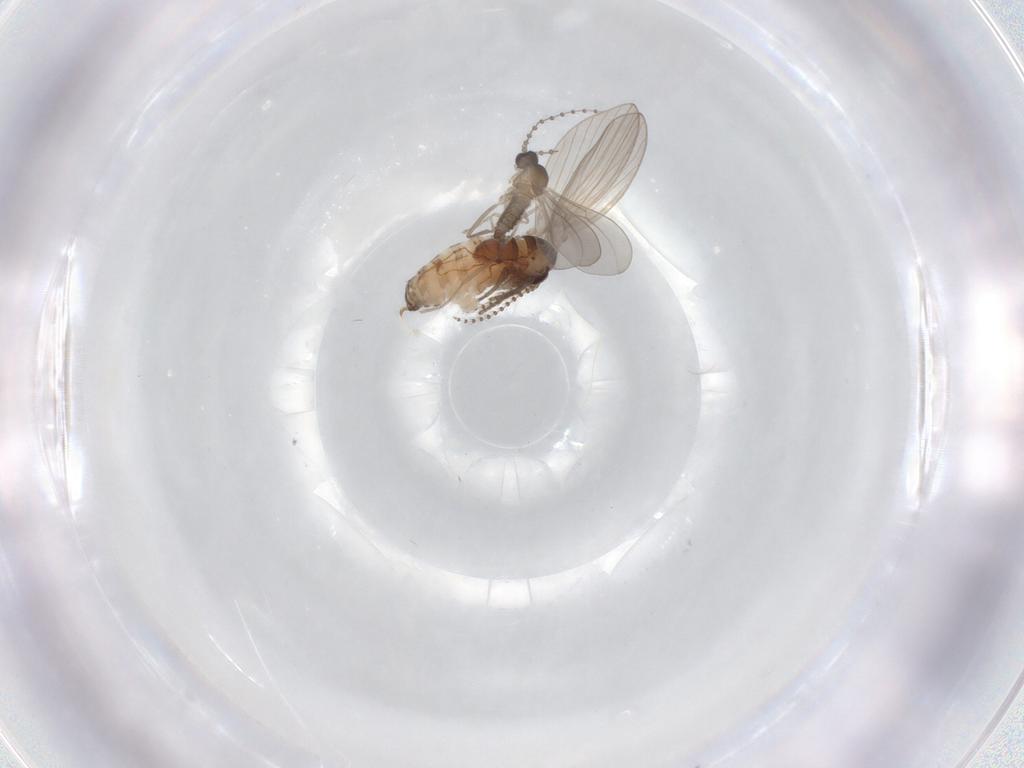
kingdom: Animalia
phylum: Arthropoda
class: Insecta
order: Diptera
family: Psychodidae
